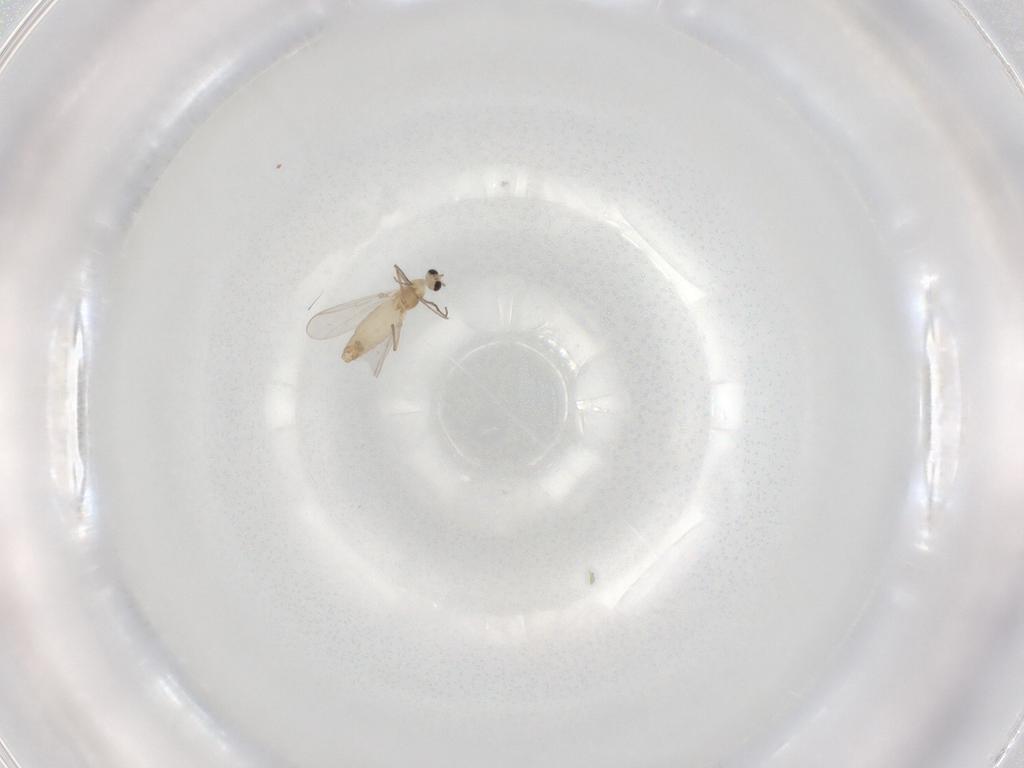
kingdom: Animalia
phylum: Arthropoda
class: Insecta
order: Diptera
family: Chironomidae
